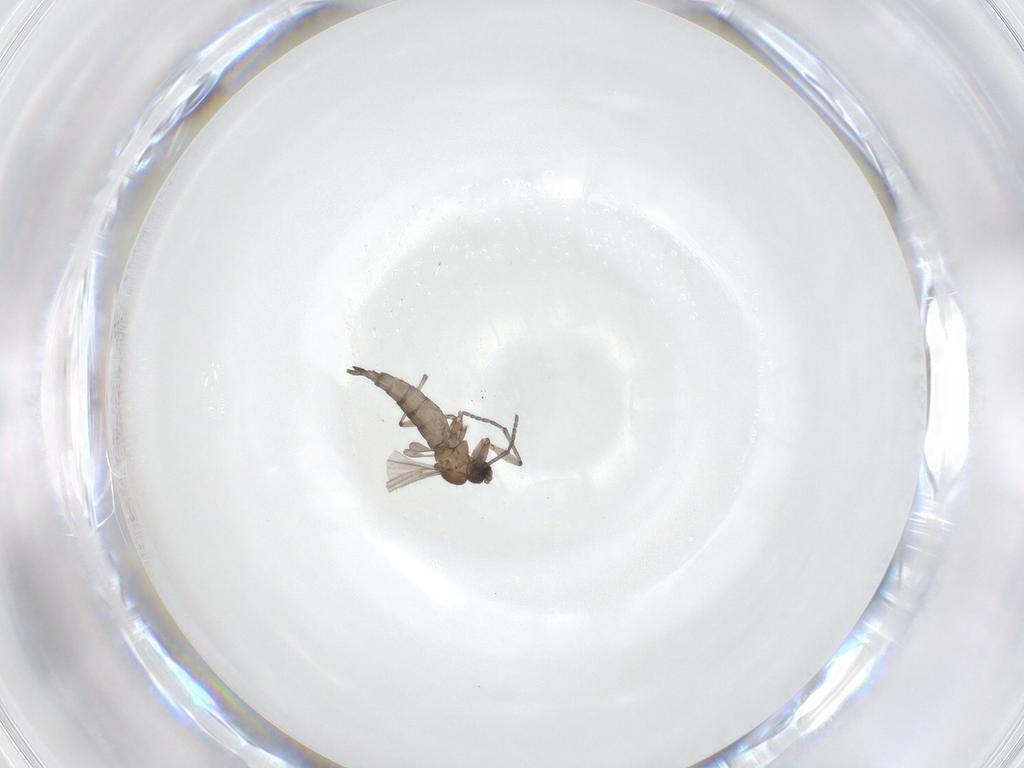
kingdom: Animalia
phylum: Arthropoda
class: Insecta
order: Diptera
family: Sciaridae
